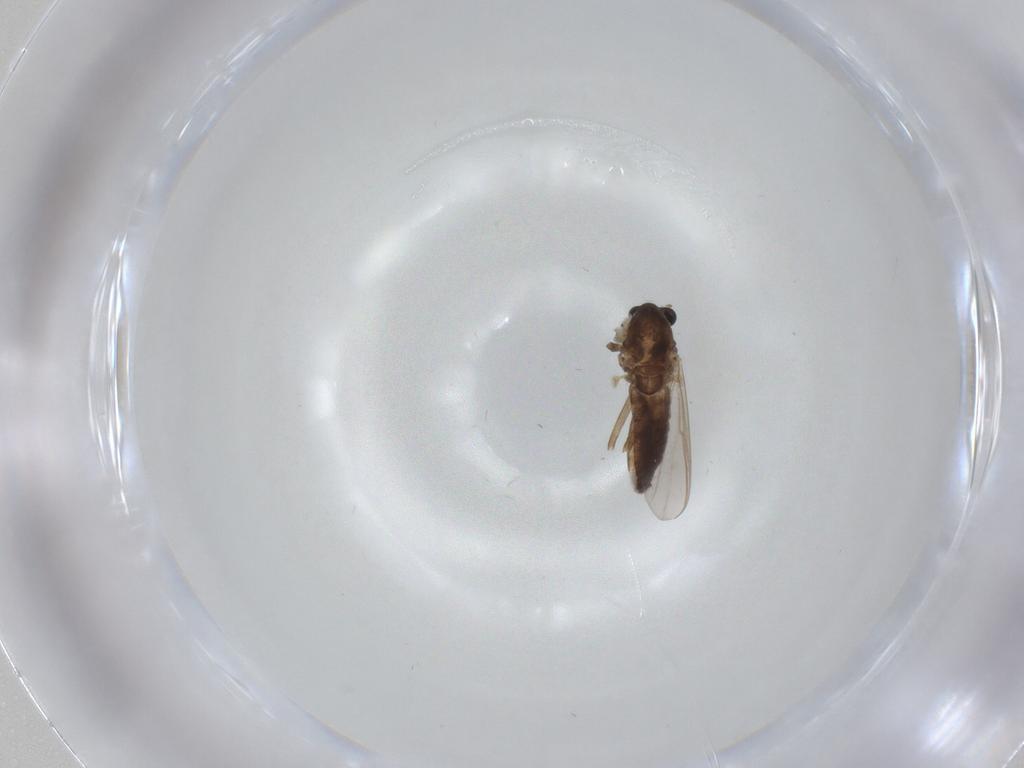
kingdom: Animalia
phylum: Arthropoda
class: Insecta
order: Diptera
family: Chironomidae
